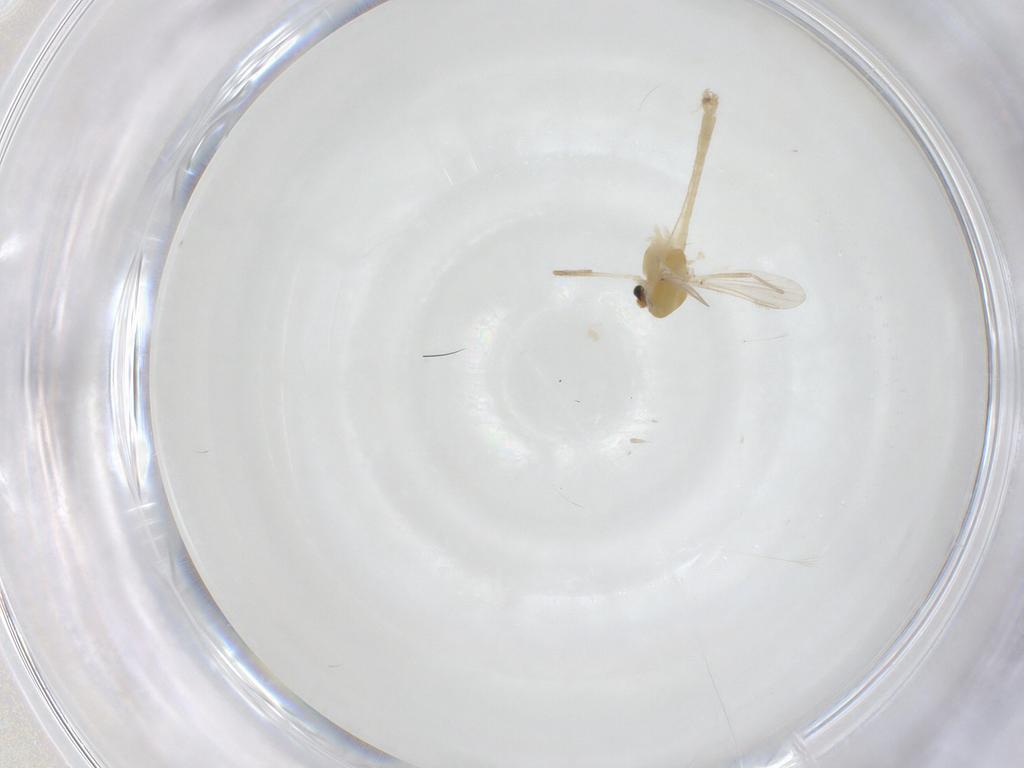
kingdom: Animalia
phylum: Arthropoda
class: Insecta
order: Diptera
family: Chironomidae
